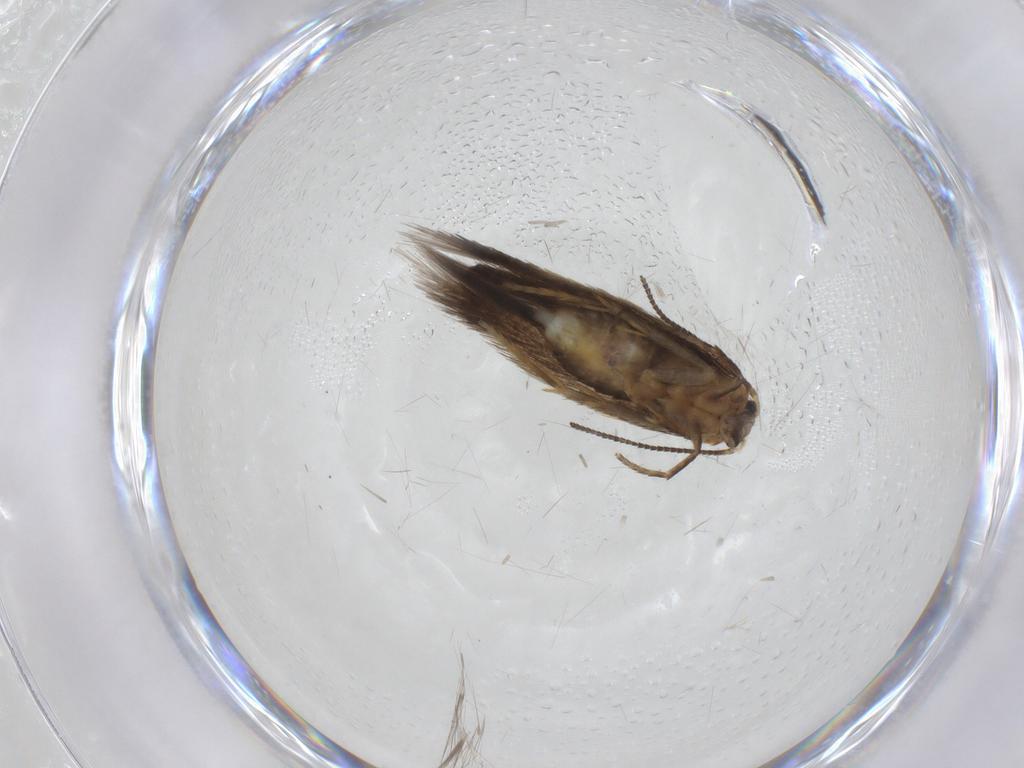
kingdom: Animalia
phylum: Arthropoda
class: Insecta
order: Lepidoptera
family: Nepticulidae
